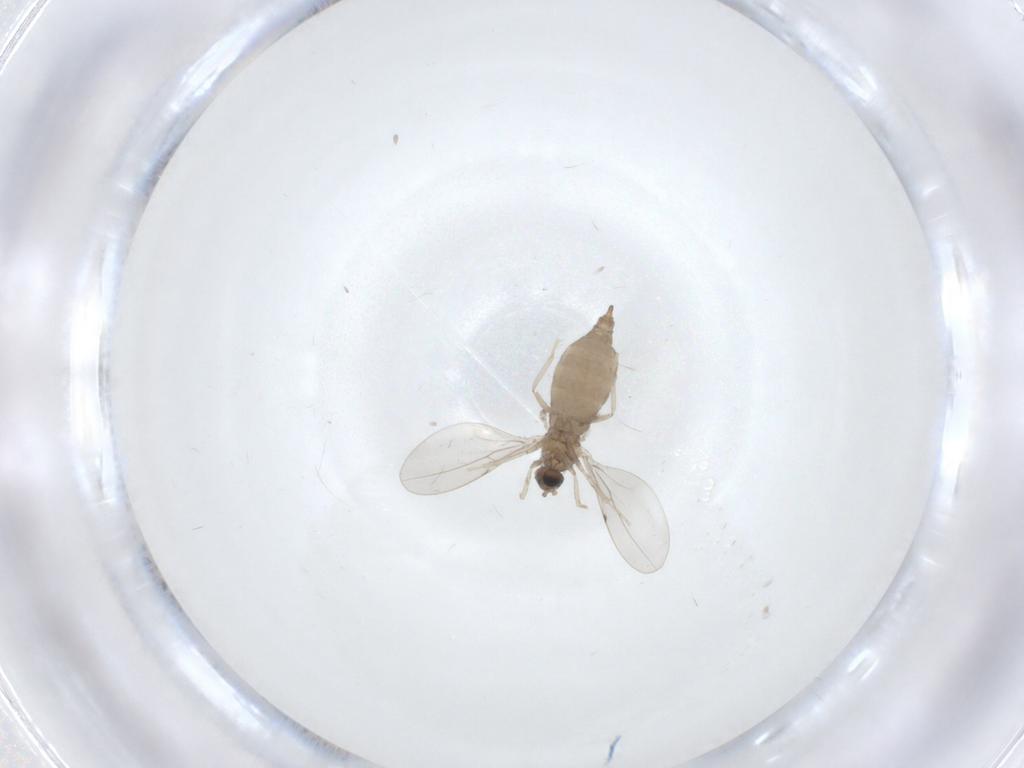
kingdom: Animalia
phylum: Arthropoda
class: Insecta
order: Diptera
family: Cecidomyiidae
